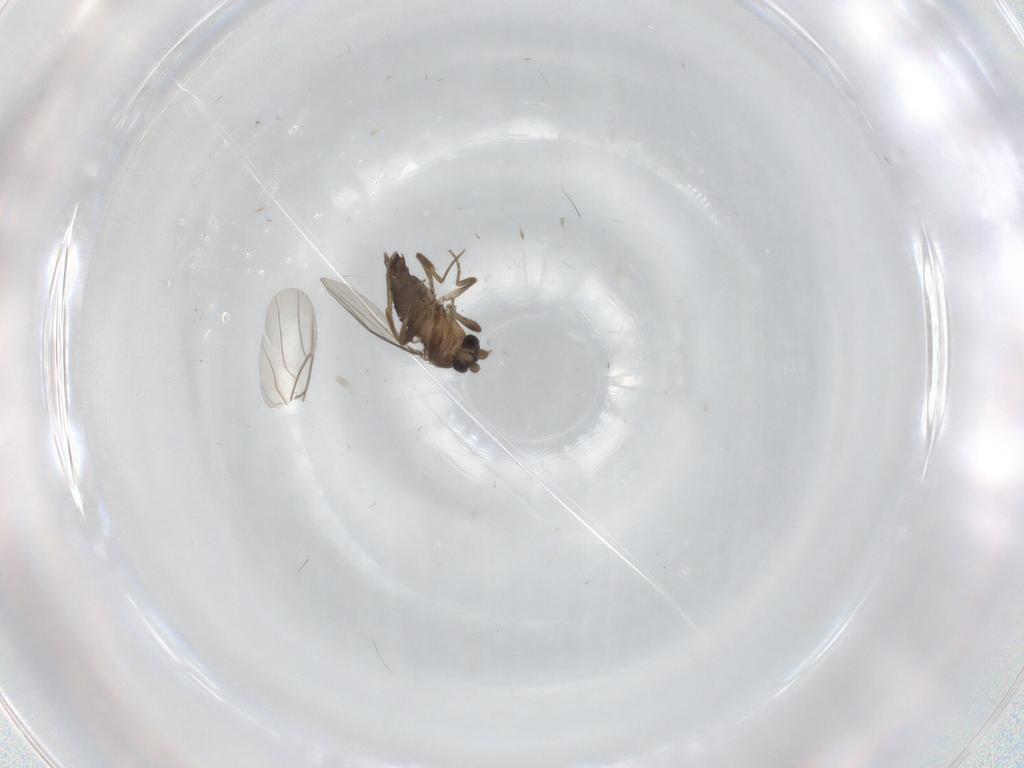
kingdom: Animalia
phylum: Arthropoda
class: Insecta
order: Diptera
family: Phoridae
